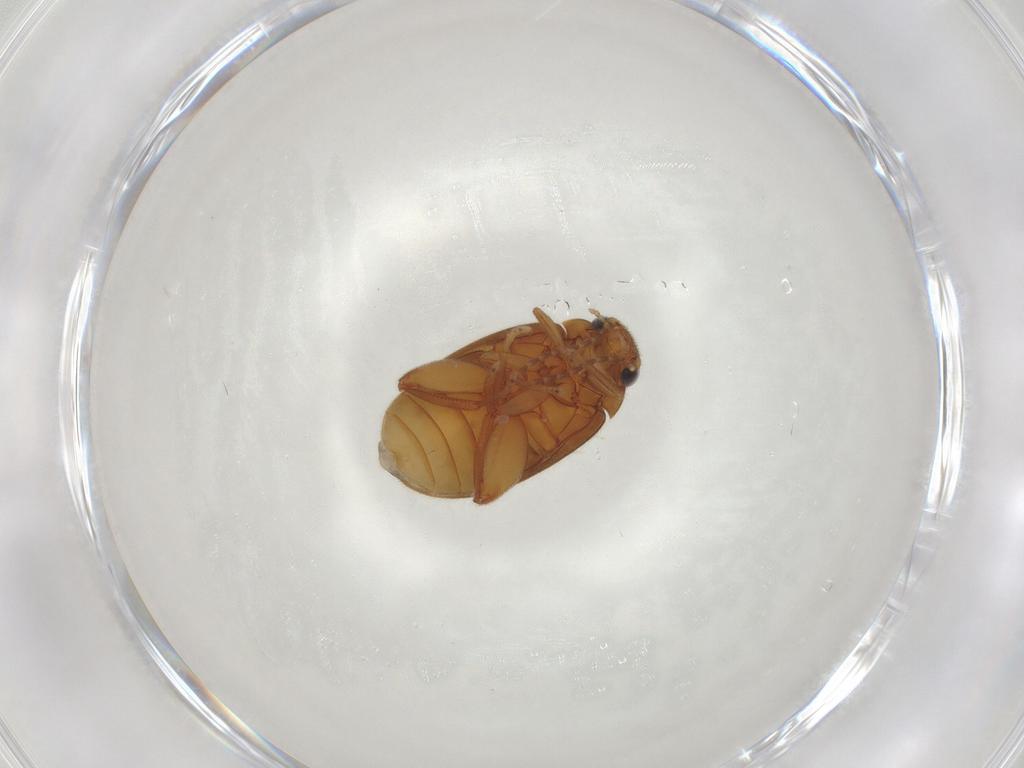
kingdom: Animalia
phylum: Arthropoda
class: Insecta
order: Coleoptera
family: Scirtidae
